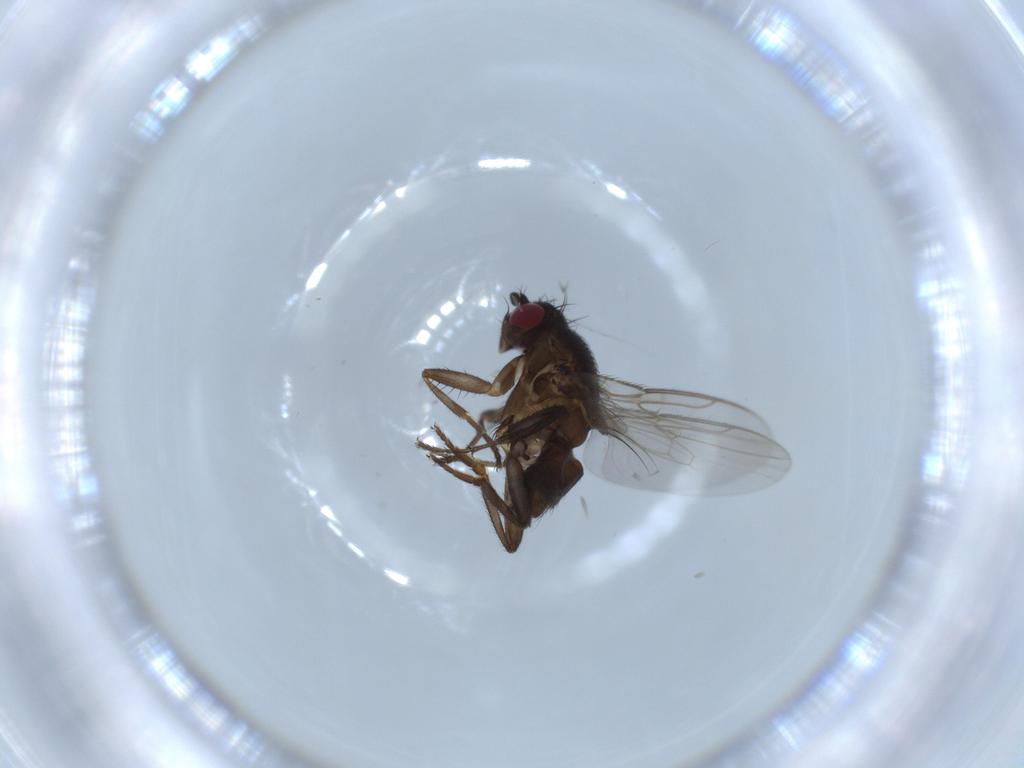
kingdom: Animalia
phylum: Arthropoda
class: Insecta
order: Diptera
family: Sphaeroceridae
